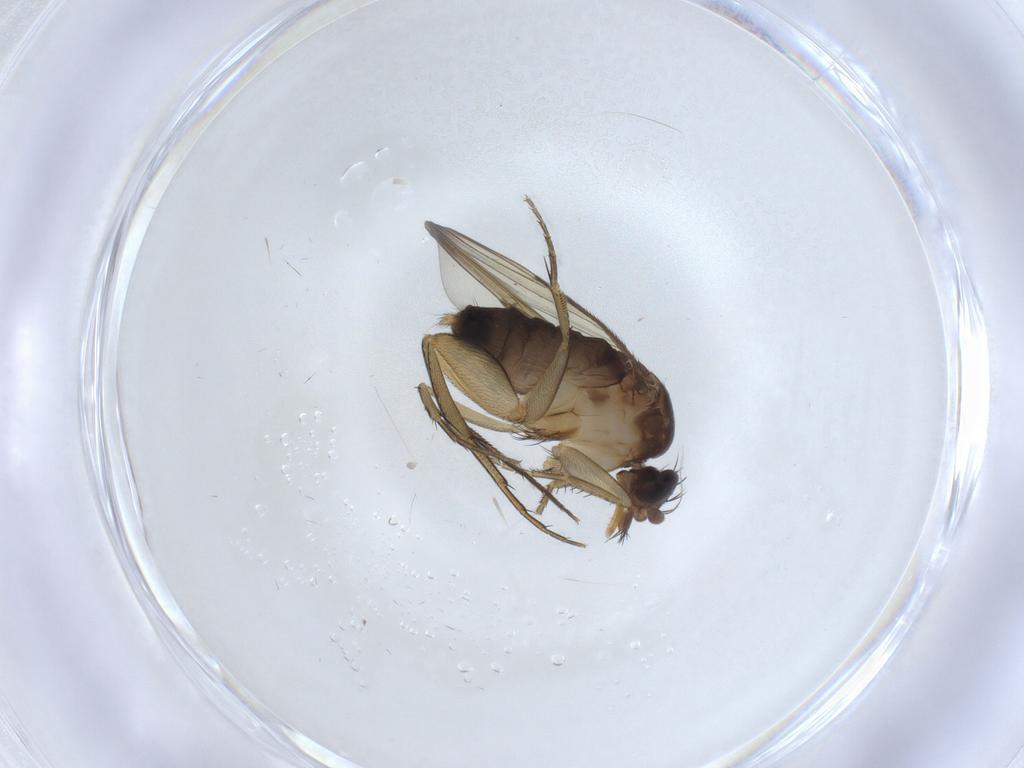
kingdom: Animalia
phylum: Arthropoda
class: Insecta
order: Diptera
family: Phoridae
